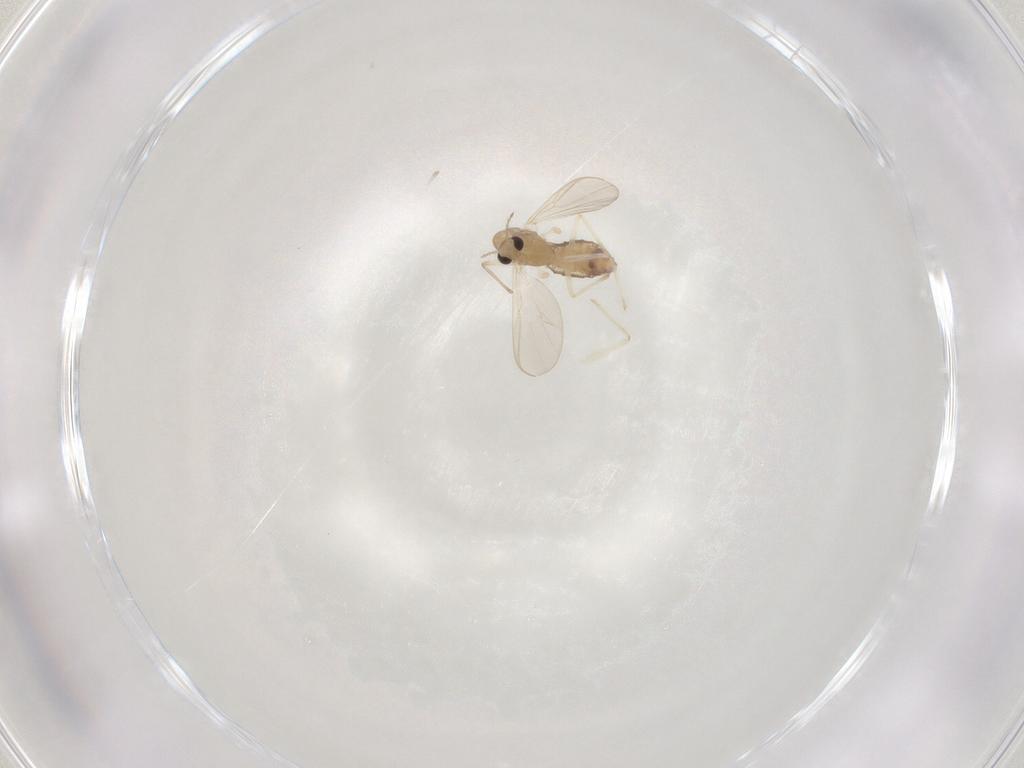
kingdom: Animalia
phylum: Arthropoda
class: Insecta
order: Diptera
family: Chironomidae
